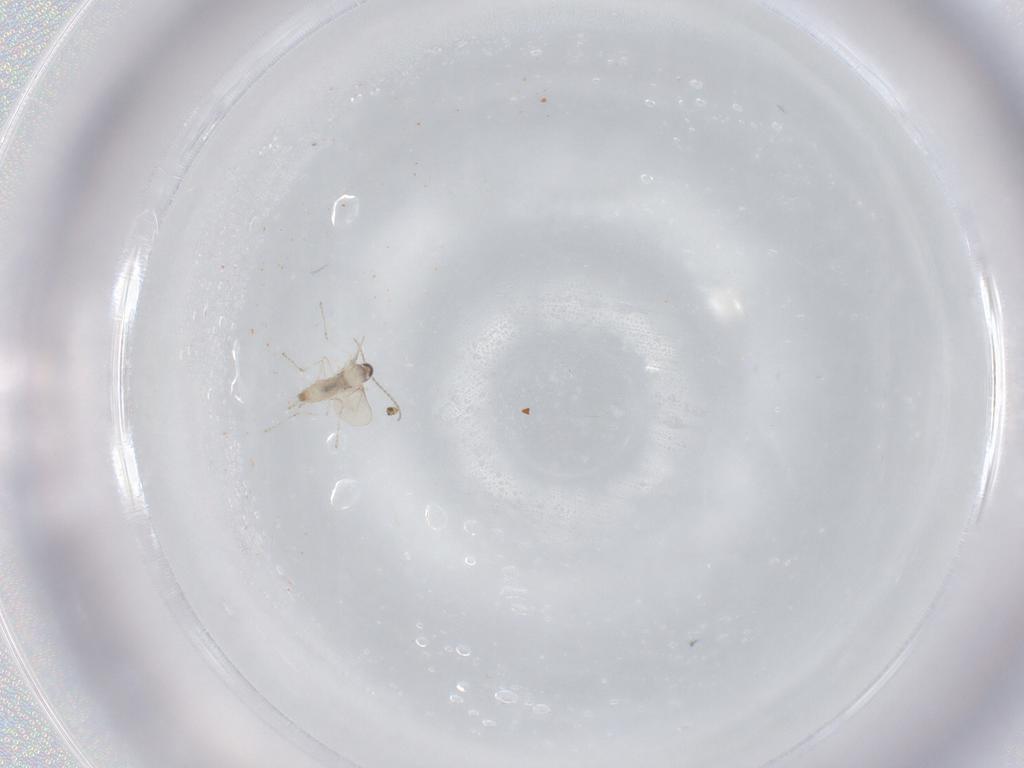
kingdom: Animalia
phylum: Arthropoda
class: Insecta
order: Diptera
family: Cecidomyiidae
